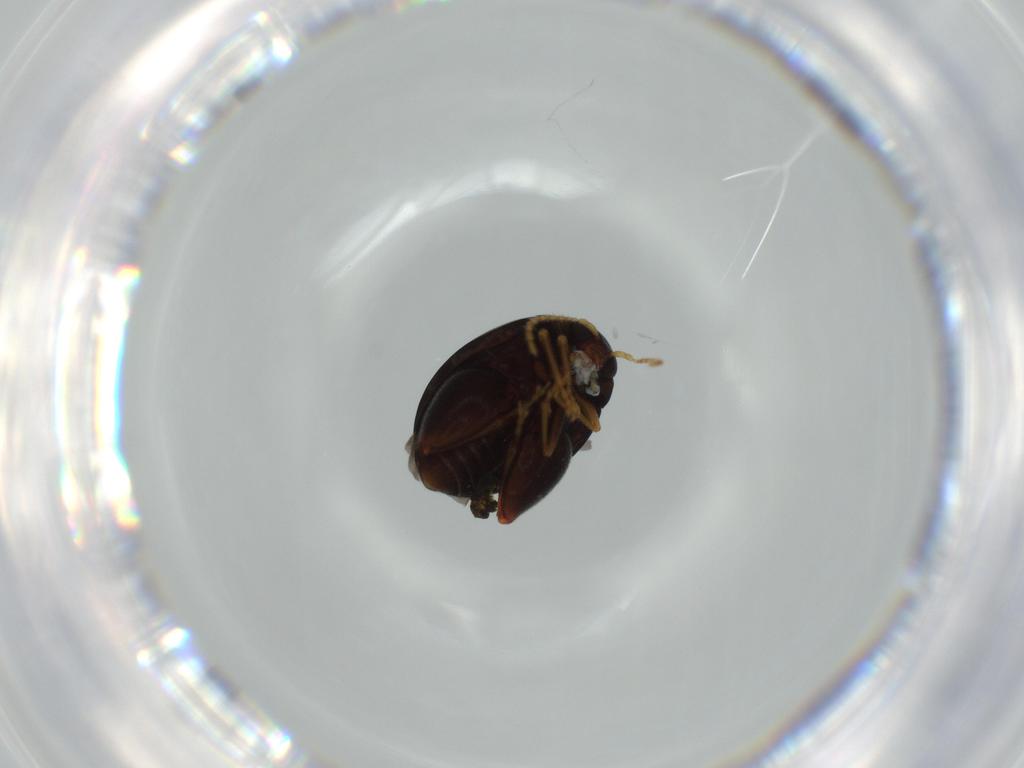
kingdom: Animalia
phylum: Arthropoda
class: Insecta
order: Coleoptera
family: Chrysomelidae
